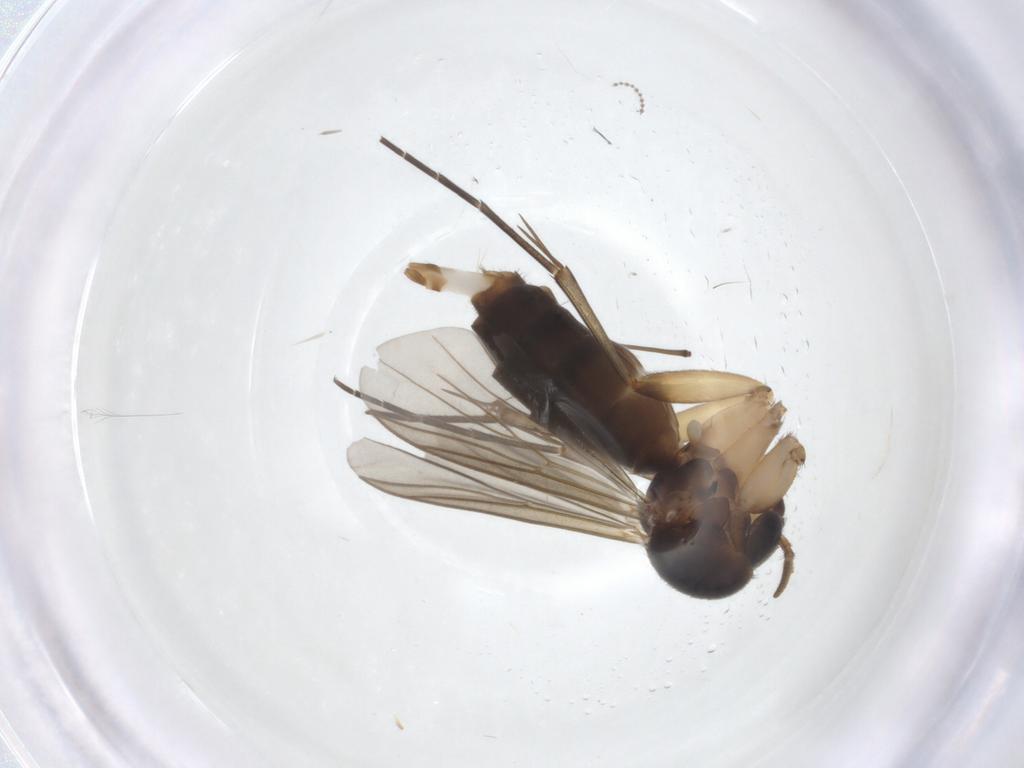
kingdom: Animalia
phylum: Arthropoda
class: Insecta
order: Diptera
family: Mycetophilidae
